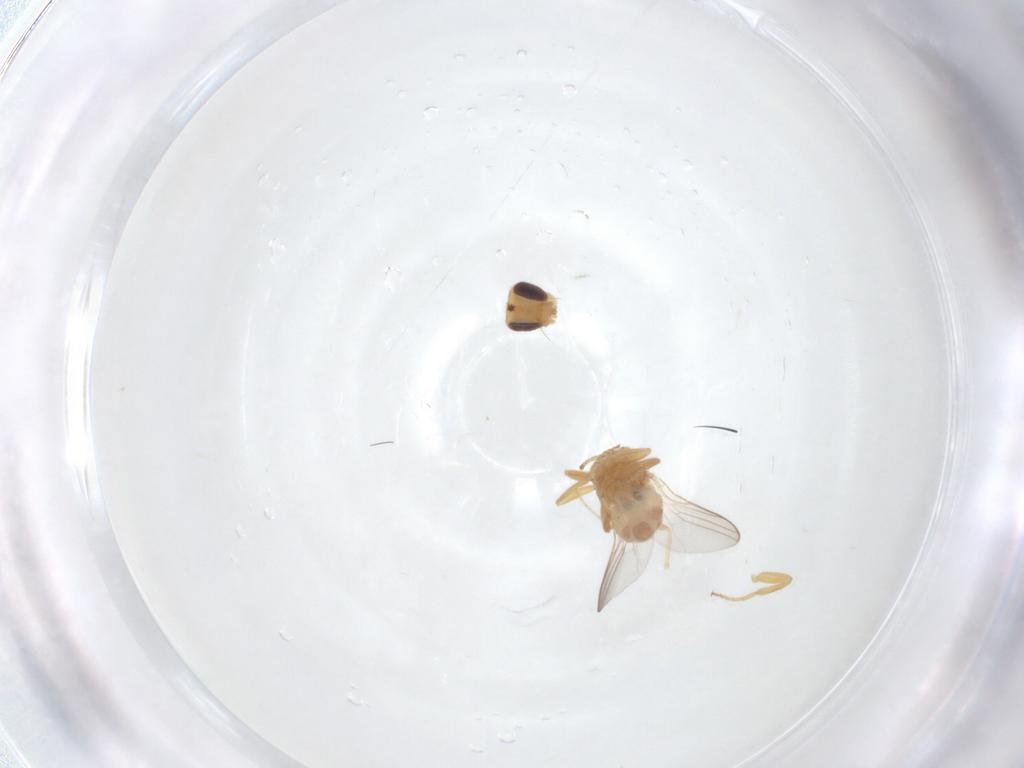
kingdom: Animalia
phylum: Arthropoda
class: Insecta
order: Diptera
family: Chloropidae
